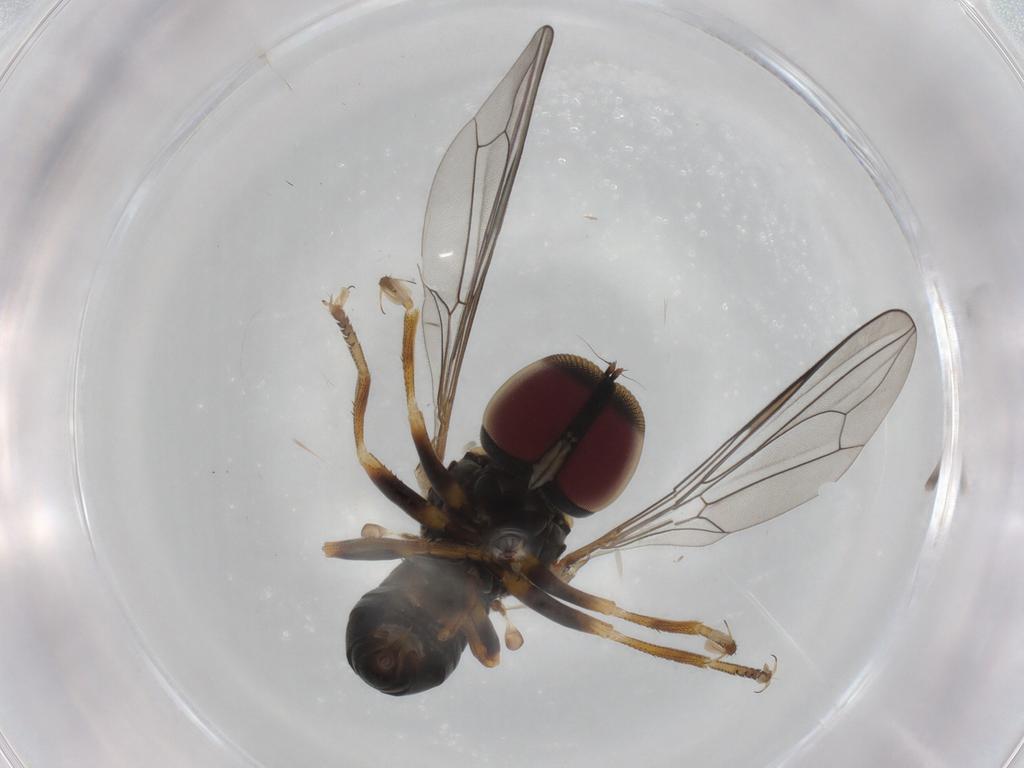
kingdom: Animalia
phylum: Arthropoda
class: Insecta
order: Diptera
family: Pipunculidae
